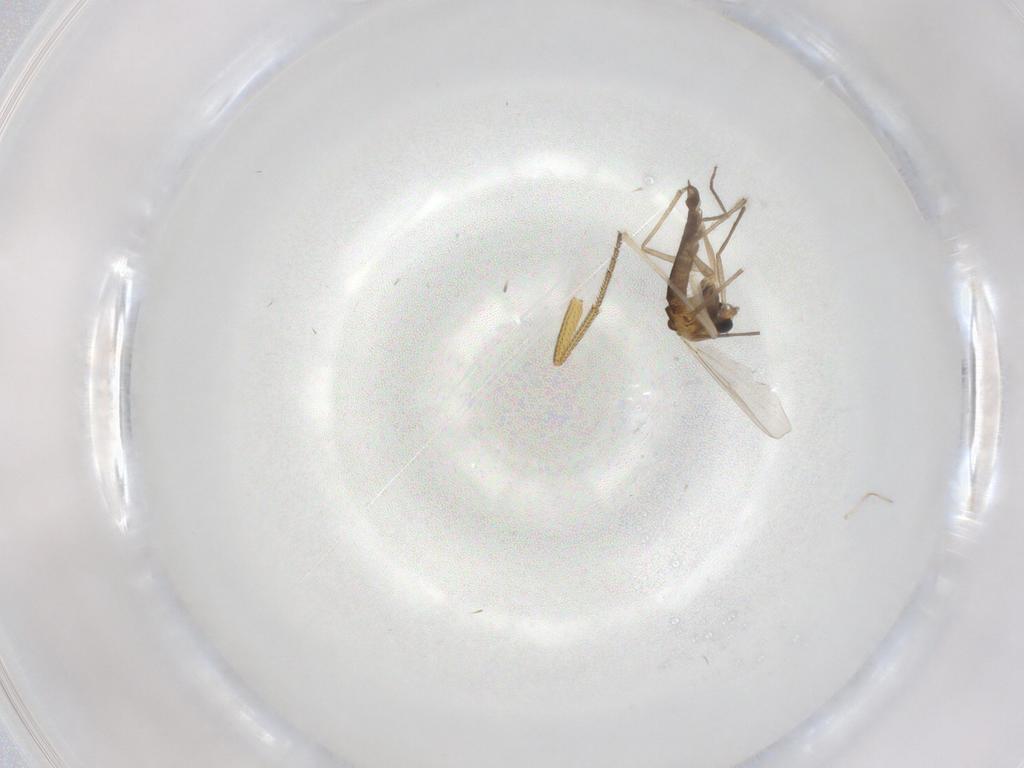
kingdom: Animalia
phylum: Arthropoda
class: Insecta
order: Diptera
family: Chironomidae
